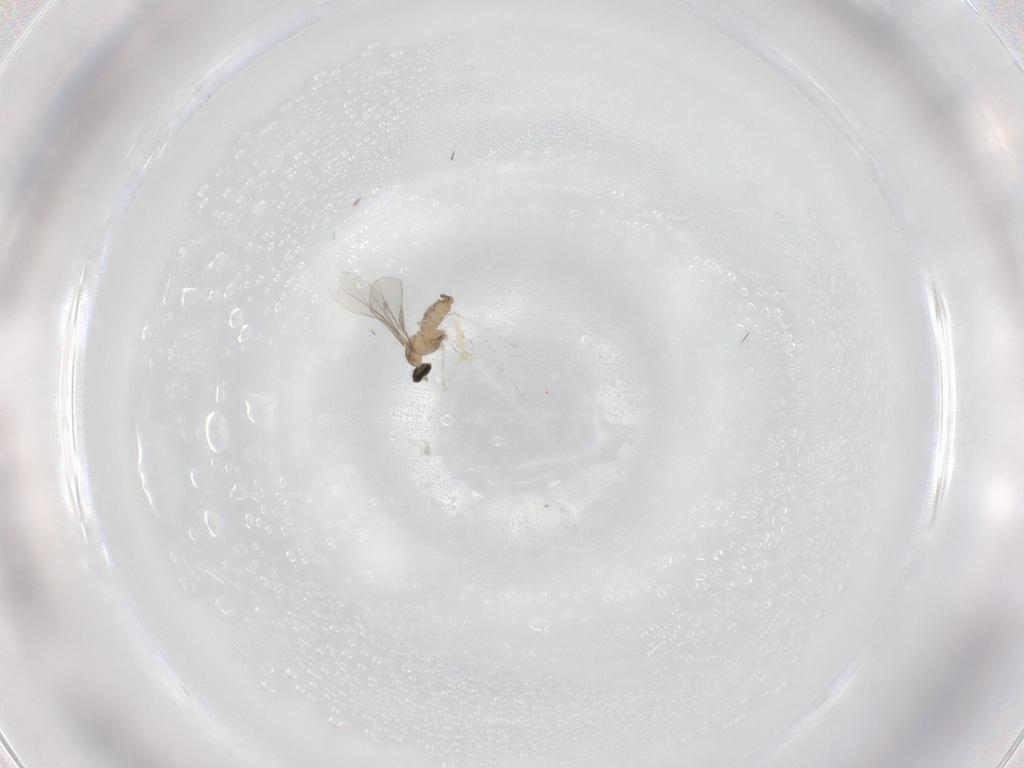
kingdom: Animalia
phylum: Arthropoda
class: Insecta
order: Diptera
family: Cecidomyiidae
